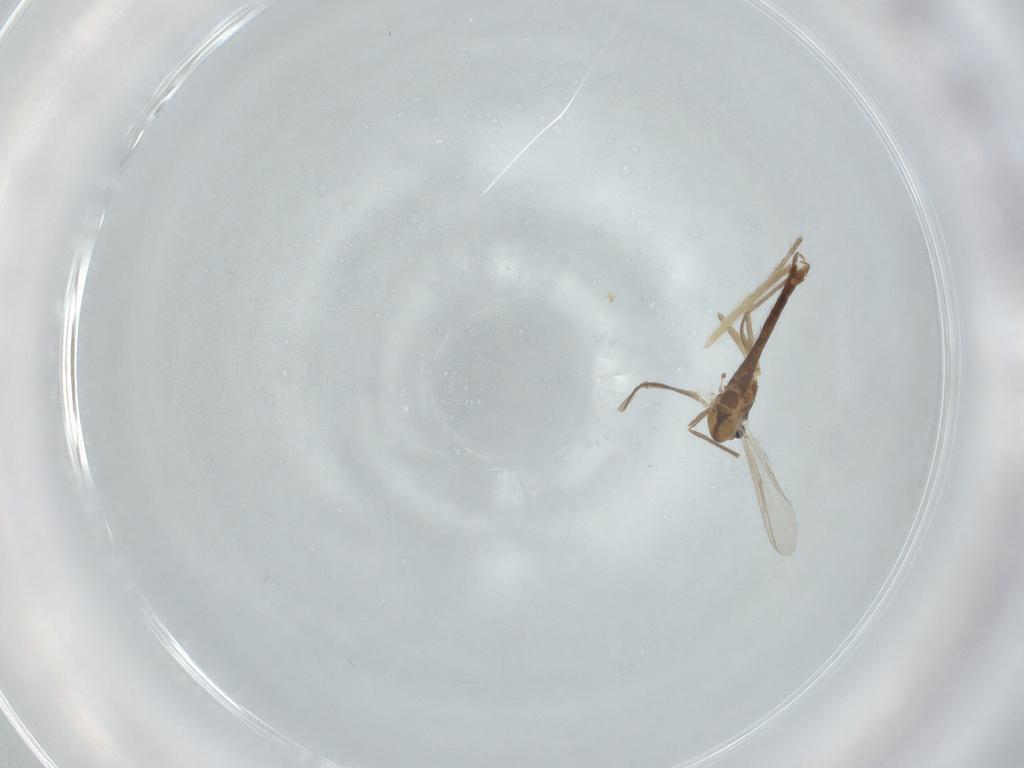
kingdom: Animalia
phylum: Arthropoda
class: Insecta
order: Diptera
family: Chironomidae
